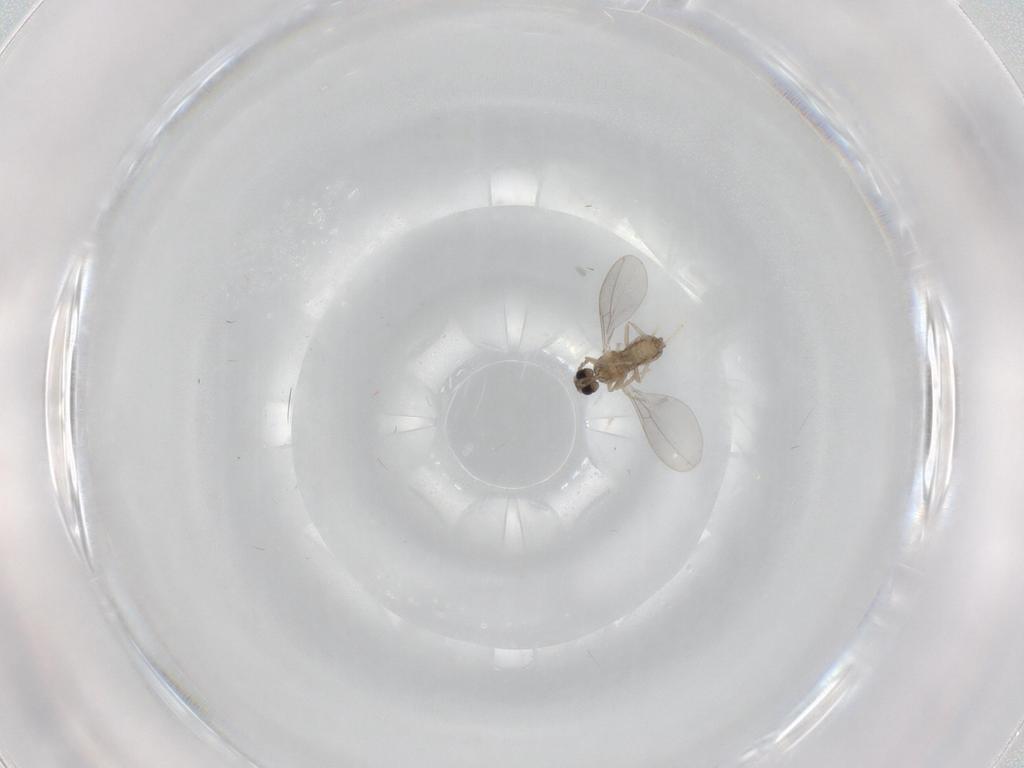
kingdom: Animalia
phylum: Arthropoda
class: Insecta
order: Diptera
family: Cecidomyiidae
